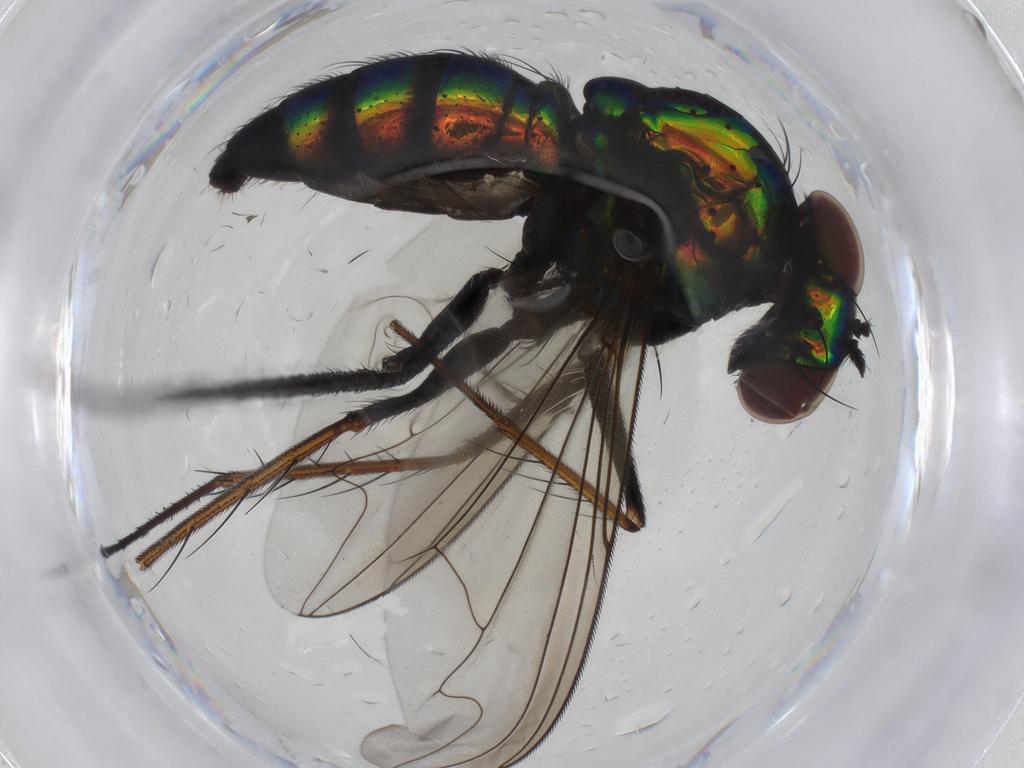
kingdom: Animalia
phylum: Arthropoda
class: Insecta
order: Diptera
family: Dolichopodidae
